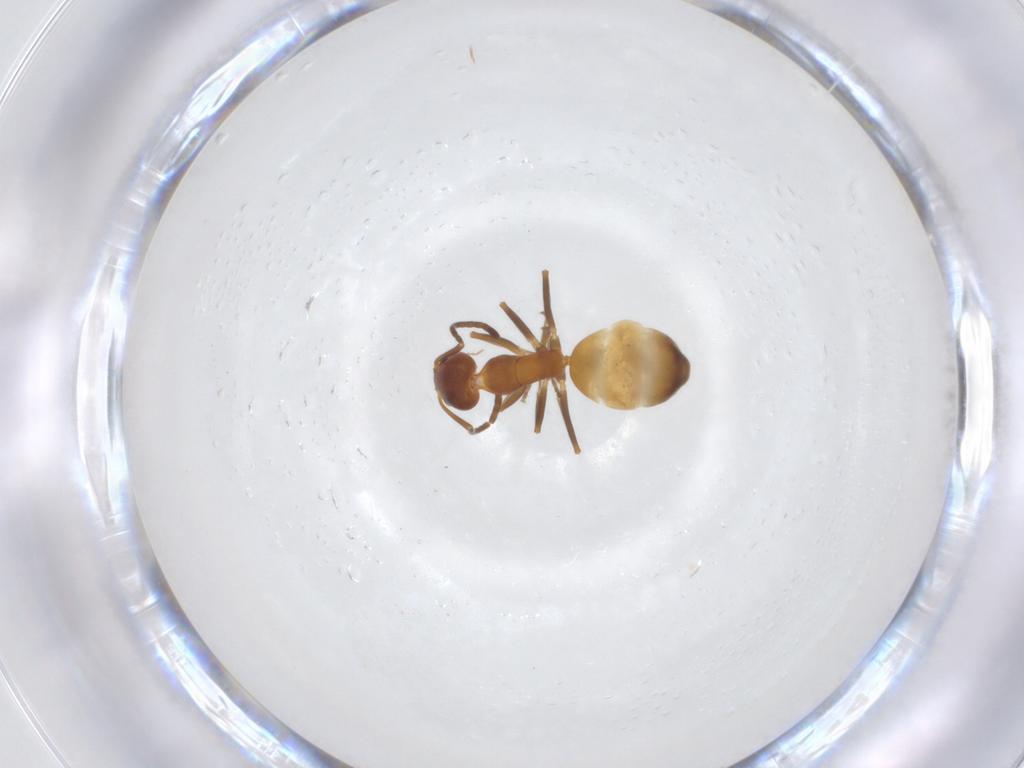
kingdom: Animalia
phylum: Arthropoda
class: Insecta
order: Hymenoptera
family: Formicidae
